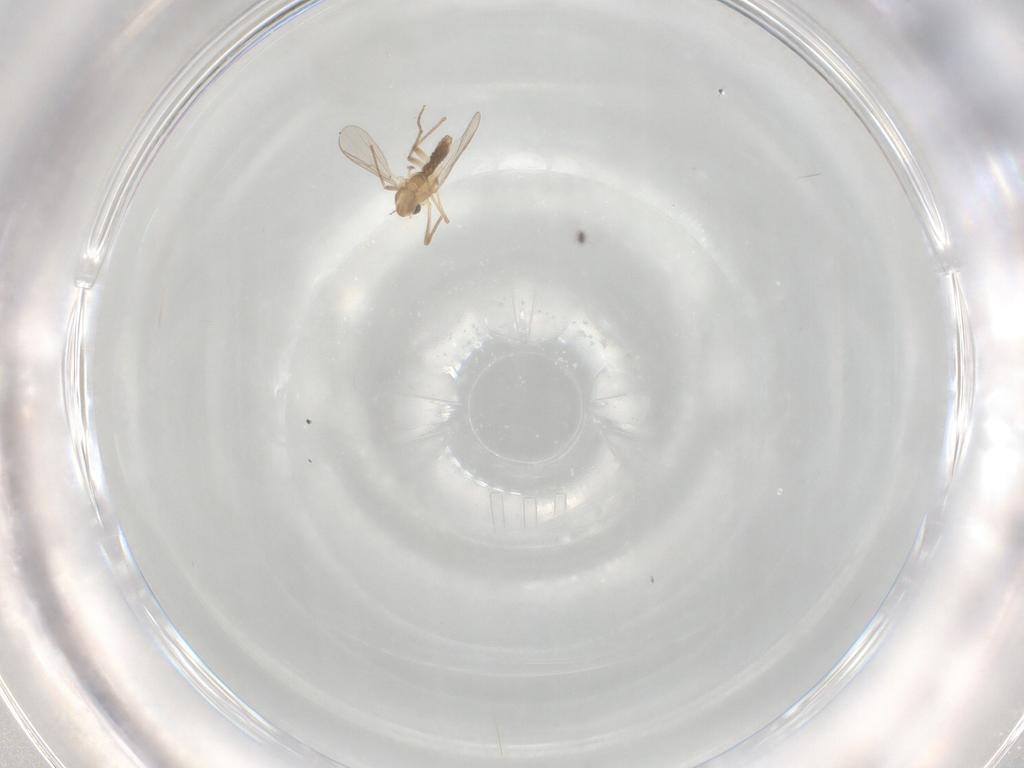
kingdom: Animalia
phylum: Arthropoda
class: Insecta
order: Diptera
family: Chironomidae
